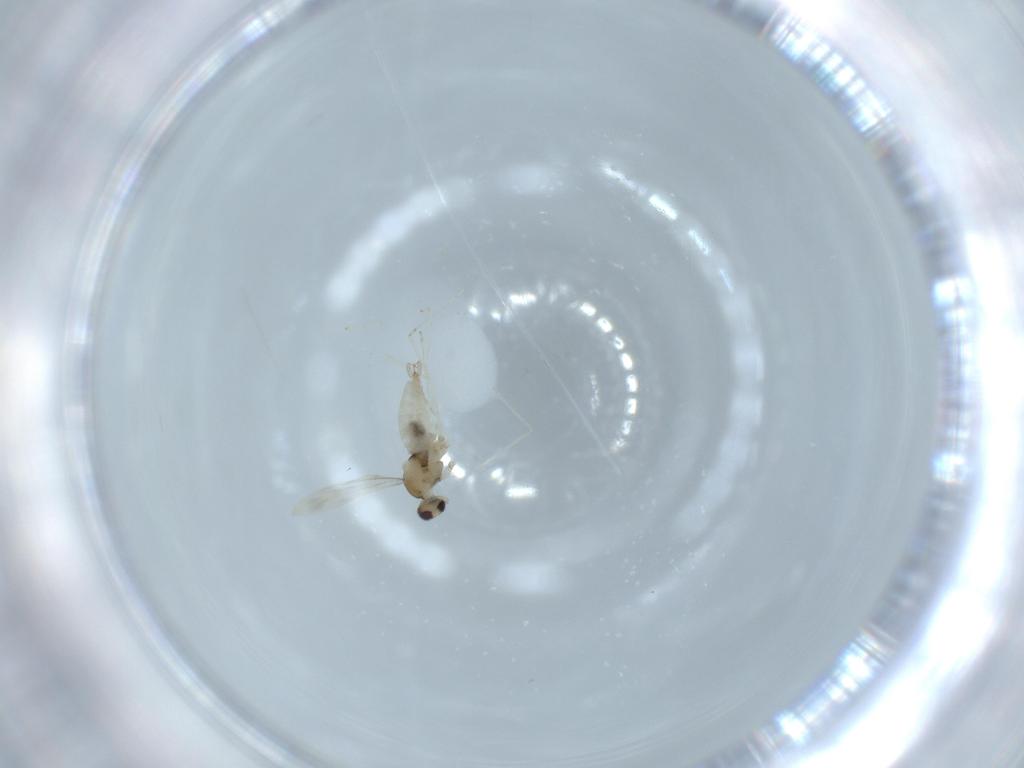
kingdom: Animalia
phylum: Arthropoda
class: Insecta
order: Diptera
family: Cecidomyiidae
